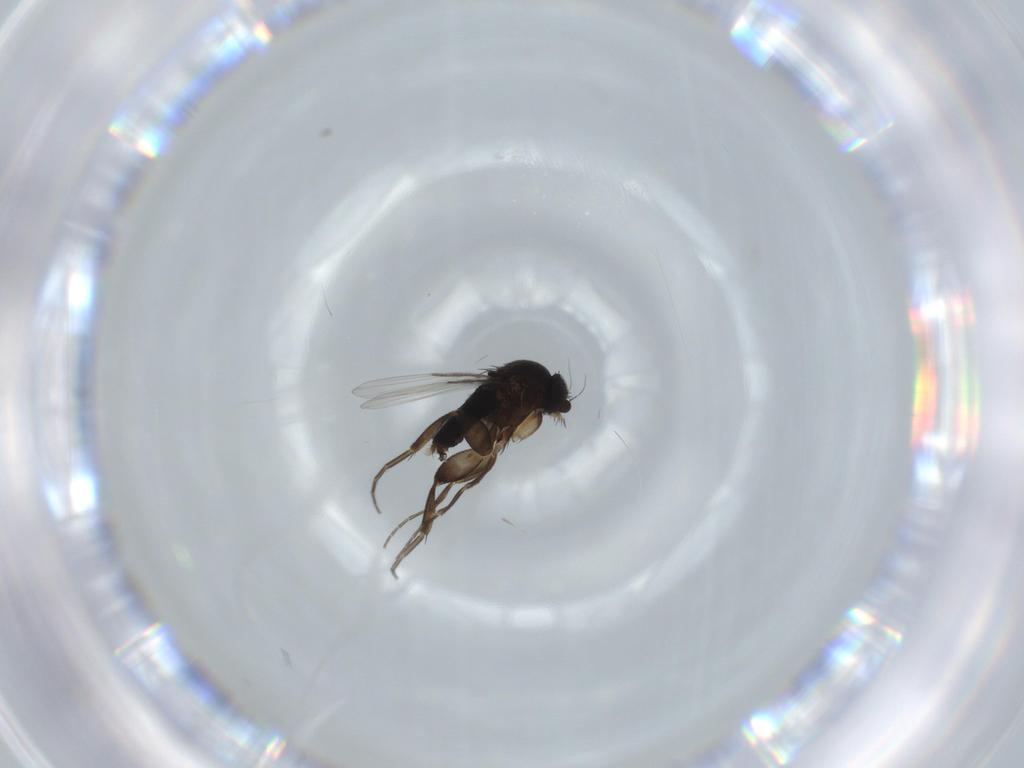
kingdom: Animalia
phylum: Arthropoda
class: Insecta
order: Diptera
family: Phoridae
